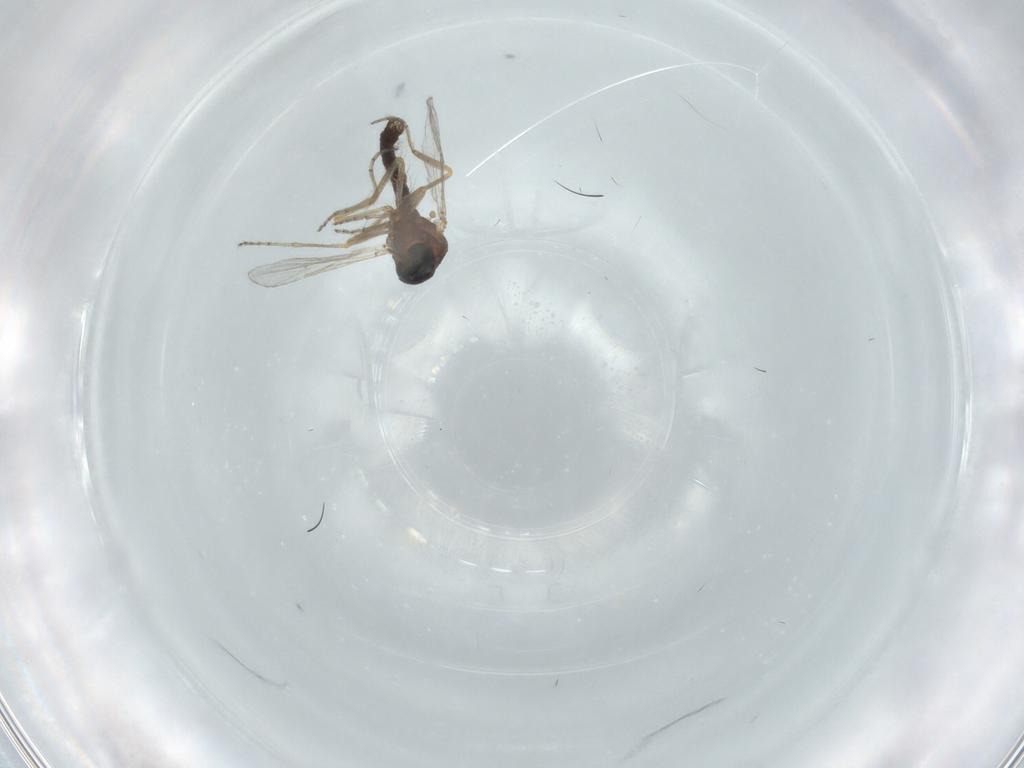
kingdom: Animalia
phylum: Arthropoda
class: Insecta
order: Diptera
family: Ceratopogonidae
